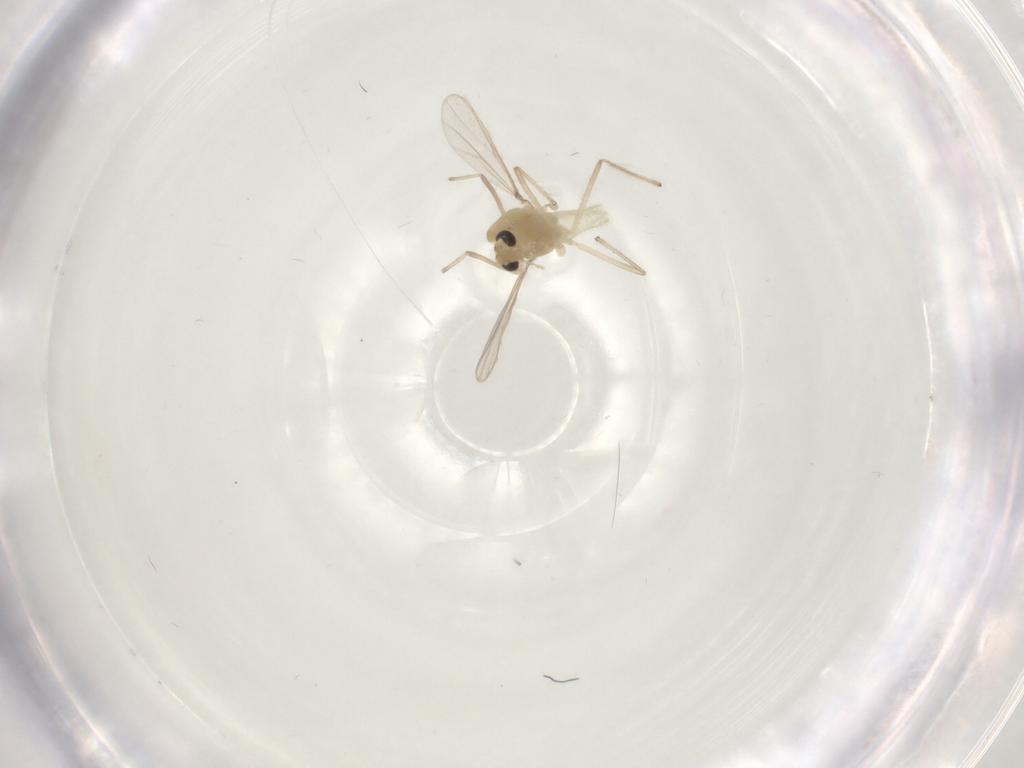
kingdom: Animalia
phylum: Arthropoda
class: Insecta
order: Diptera
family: Chironomidae
